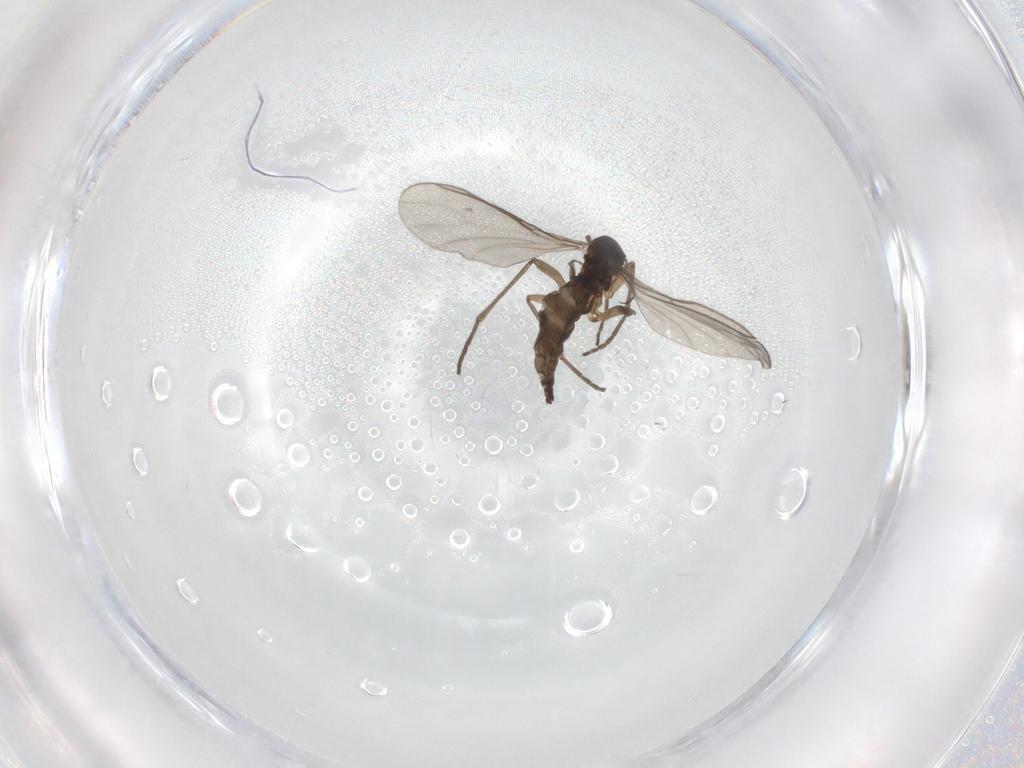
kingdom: Animalia
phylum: Arthropoda
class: Insecta
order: Diptera
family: Sciaridae
